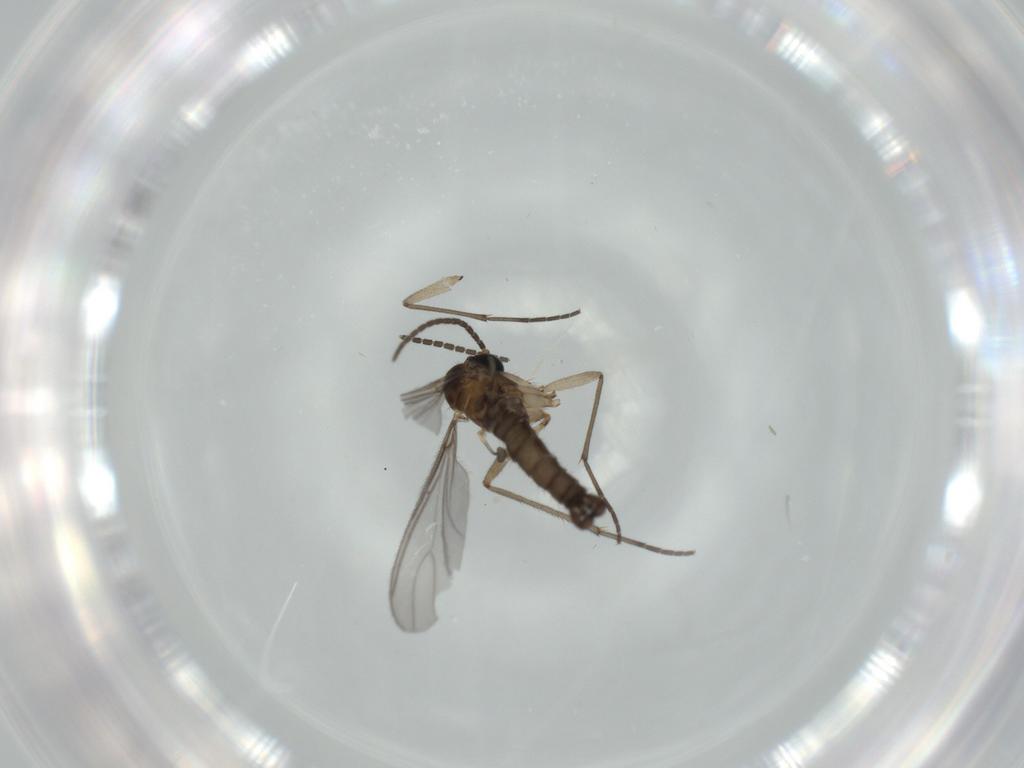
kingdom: Animalia
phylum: Arthropoda
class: Insecta
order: Diptera
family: Sciaridae
